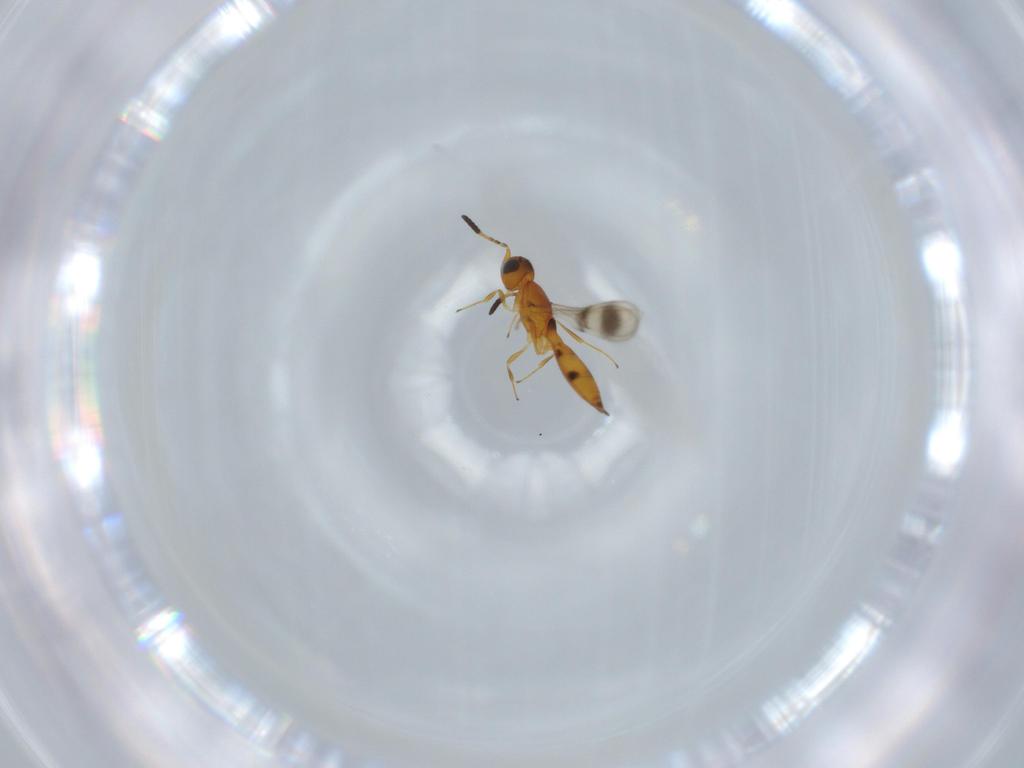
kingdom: Animalia
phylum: Arthropoda
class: Insecta
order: Hymenoptera
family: Scelionidae
